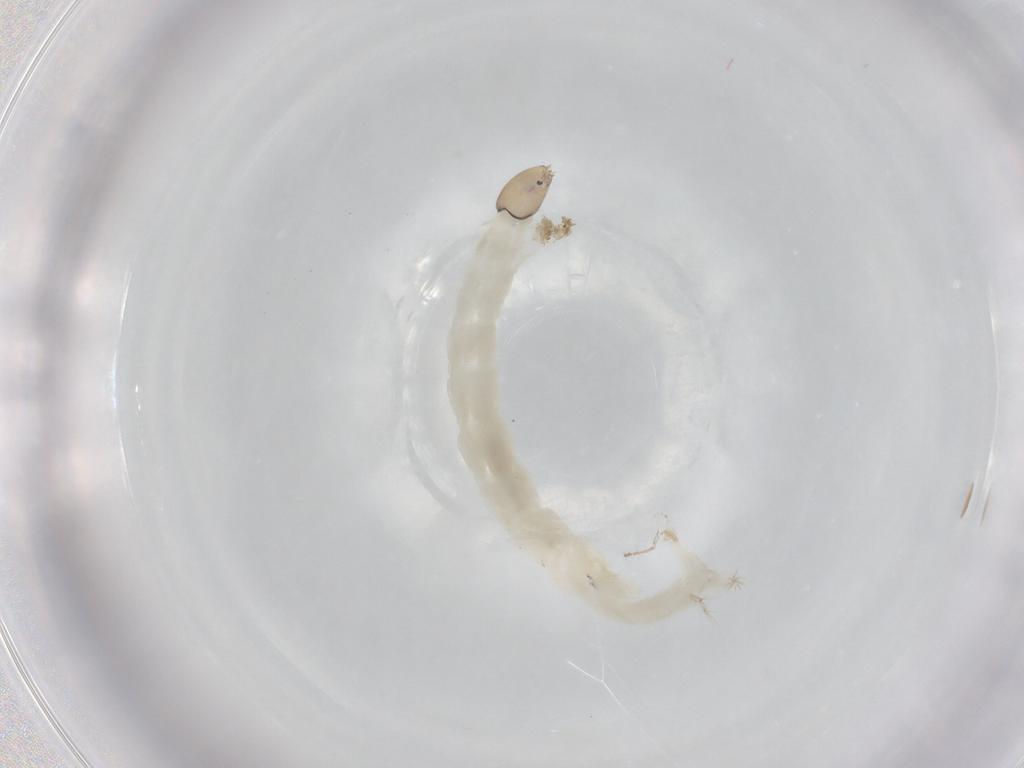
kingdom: Animalia
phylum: Arthropoda
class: Insecta
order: Diptera
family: Chironomidae
